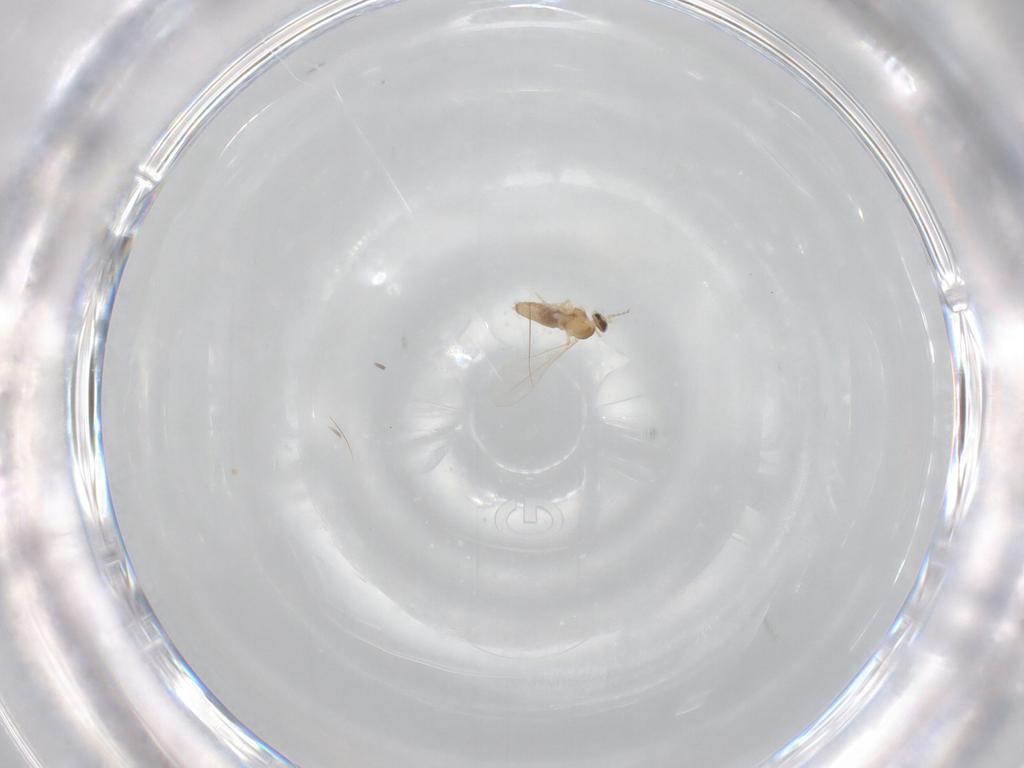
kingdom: Animalia
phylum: Arthropoda
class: Insecta
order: Diptera
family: Cecidomyiidae
